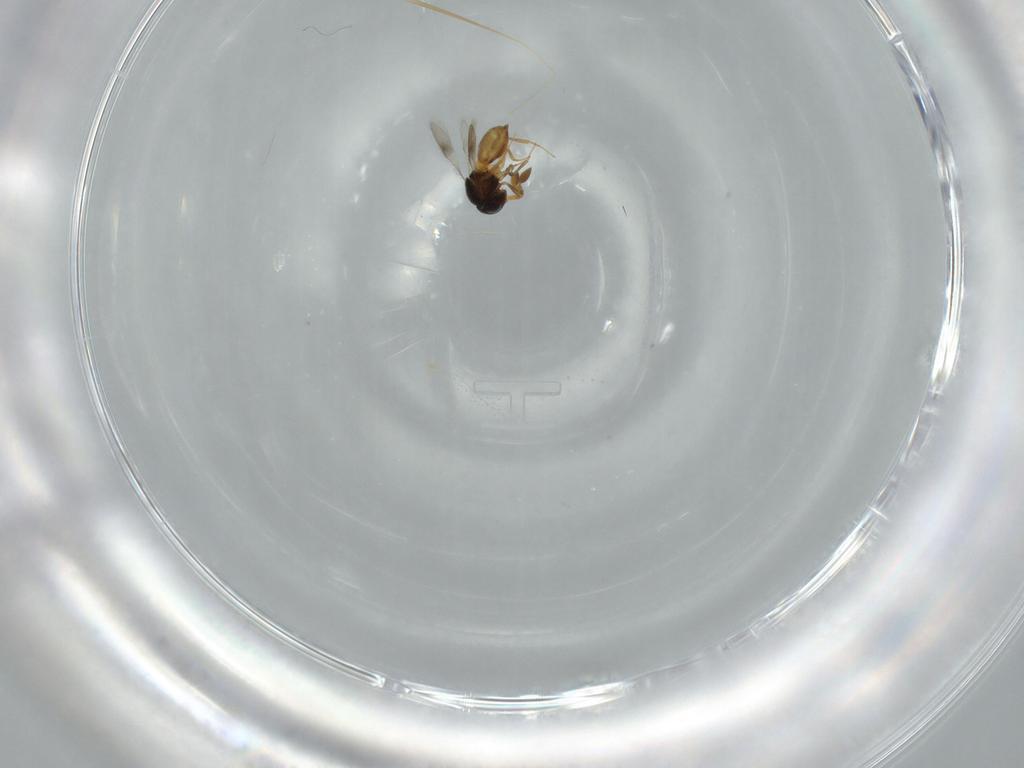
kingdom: Animalia
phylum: Arthropoda
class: Insecta
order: Hymenoptera
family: Scelionidae
